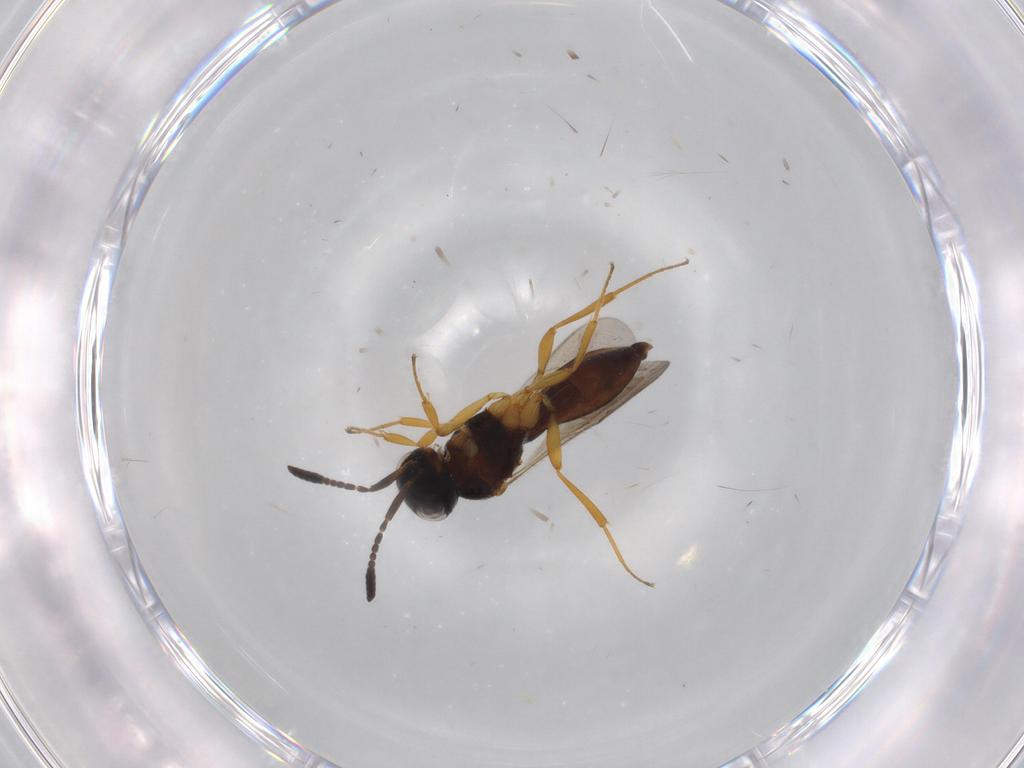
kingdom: Animalia
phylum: Arthropoda
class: Insecta
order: Hymenoptera
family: Scelionidae
